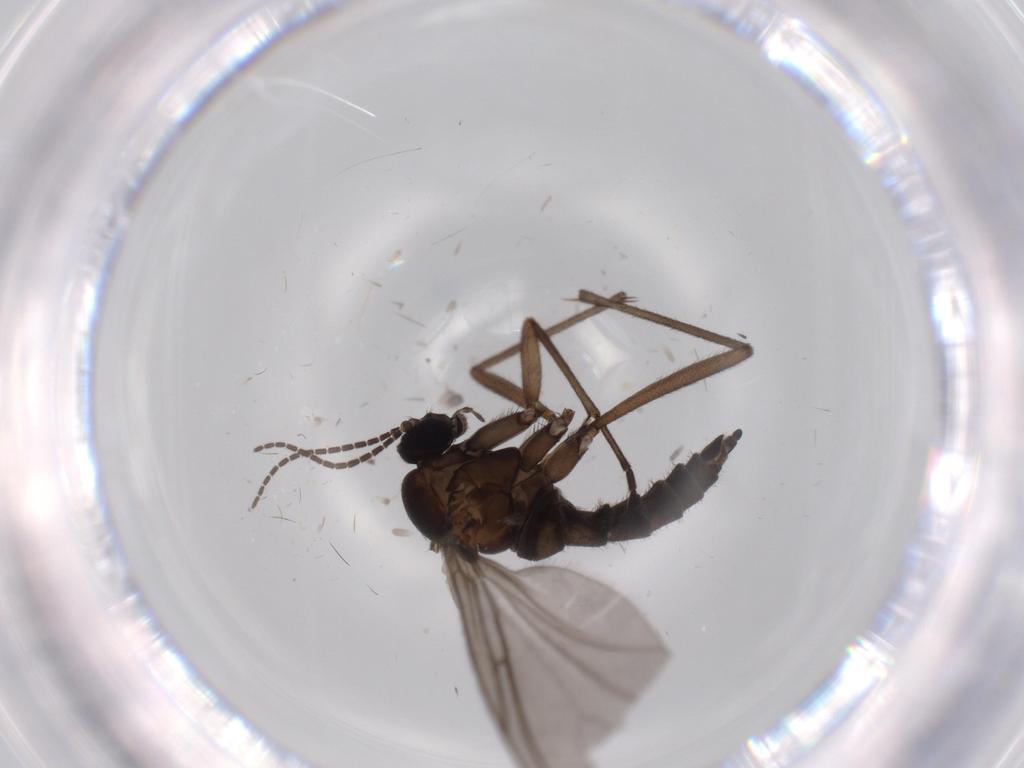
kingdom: Animalia
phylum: Arthropoda
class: Insecta
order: Diptera
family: Sciaridae
